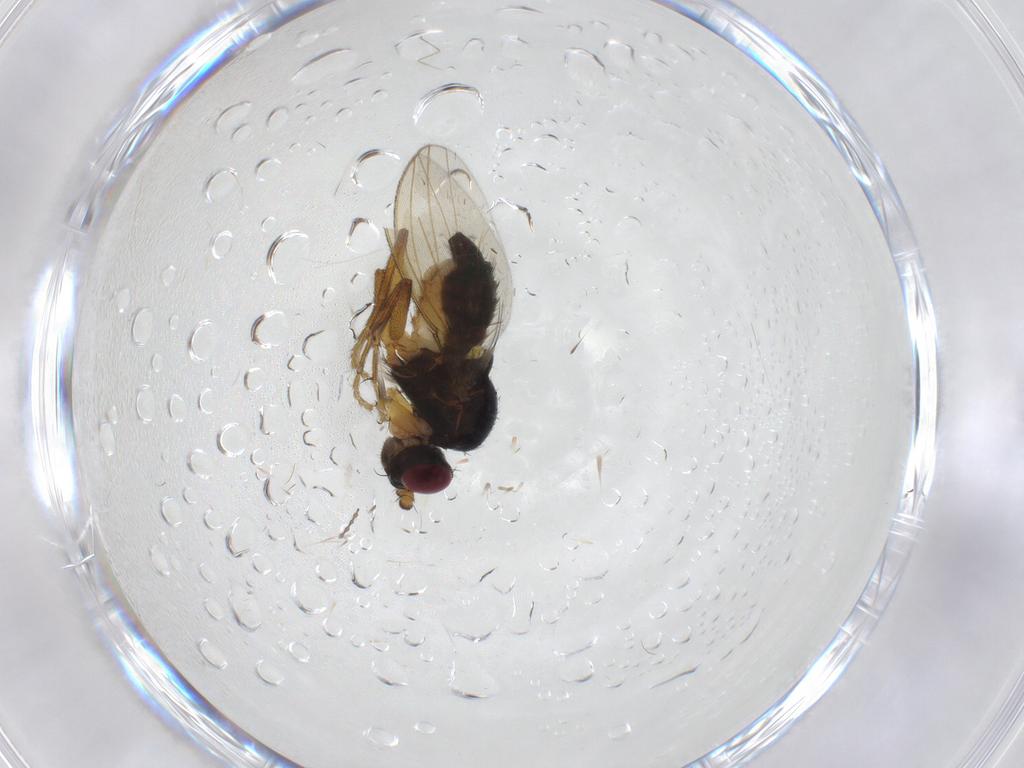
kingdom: Animalia
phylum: Arthropoda
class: Insecta
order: Diptera
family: Cypselosomatidae
